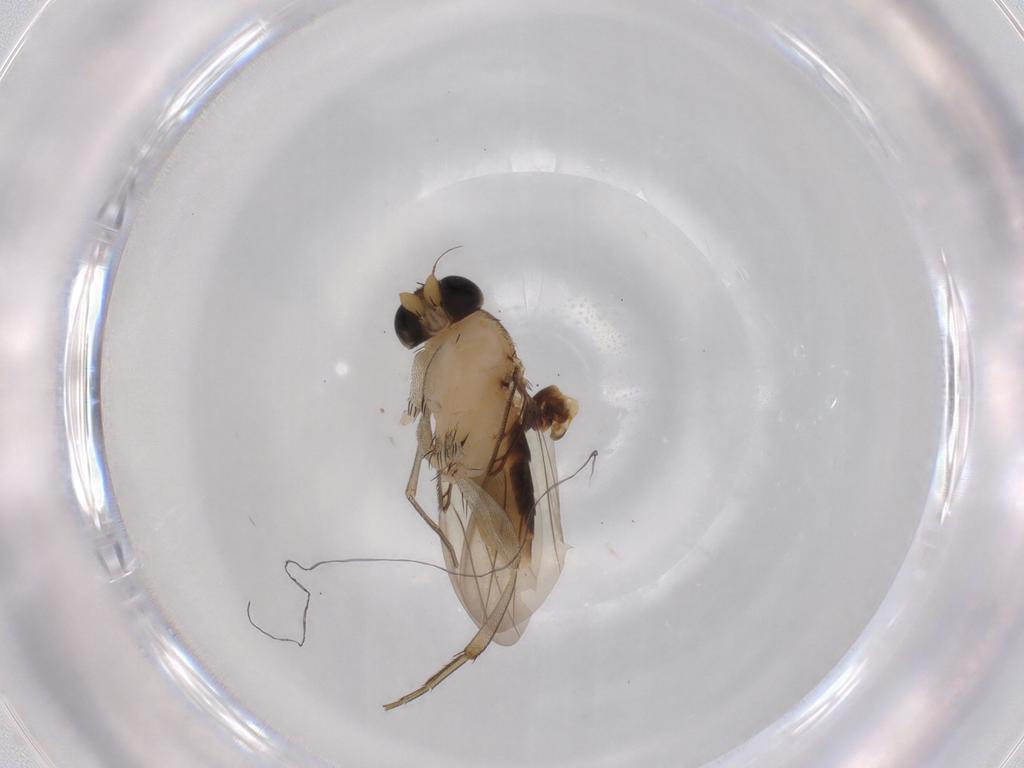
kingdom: Animalia
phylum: Arthropoda
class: Insecta
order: Diptera
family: Phoridae
